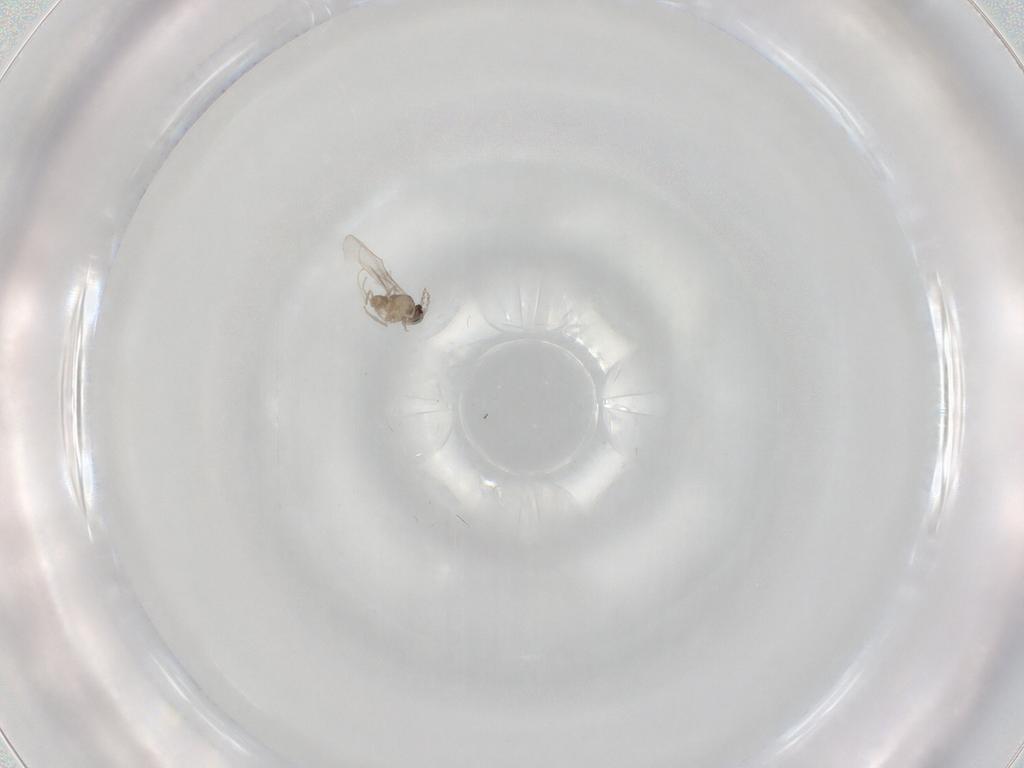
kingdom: Animalia
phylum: Arthropoda
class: Insecta
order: Diptera
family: Cecidomyiidae
